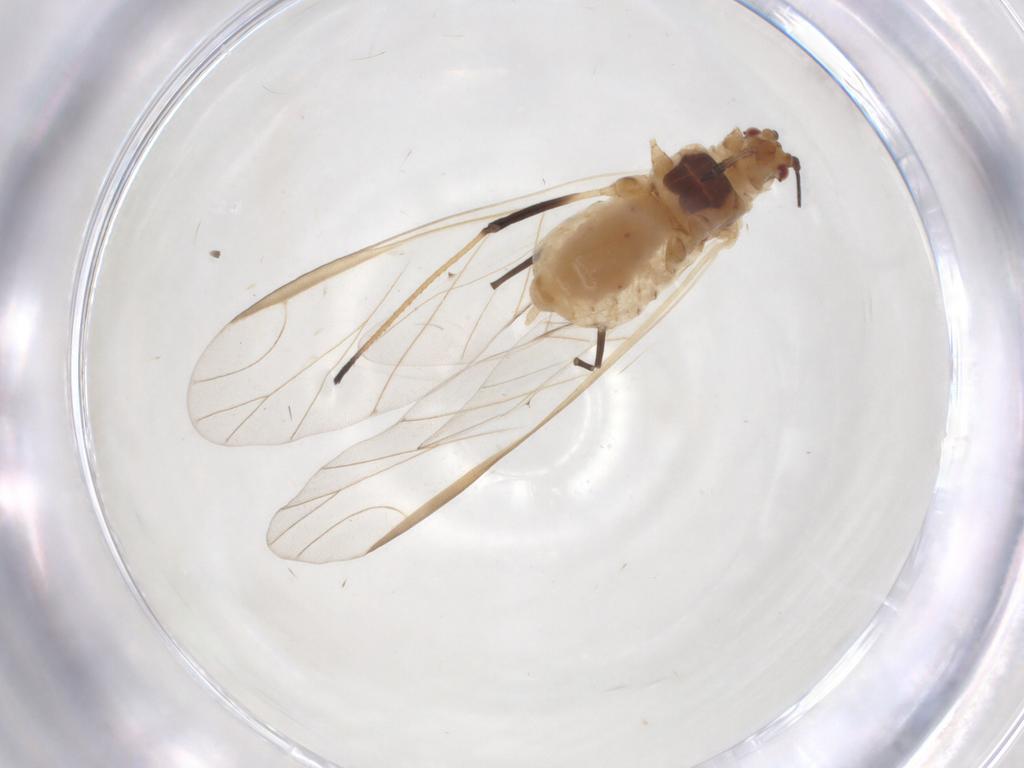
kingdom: Animalia
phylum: Arthropoda
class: Insecta
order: Hemiptera
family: Aphididae
